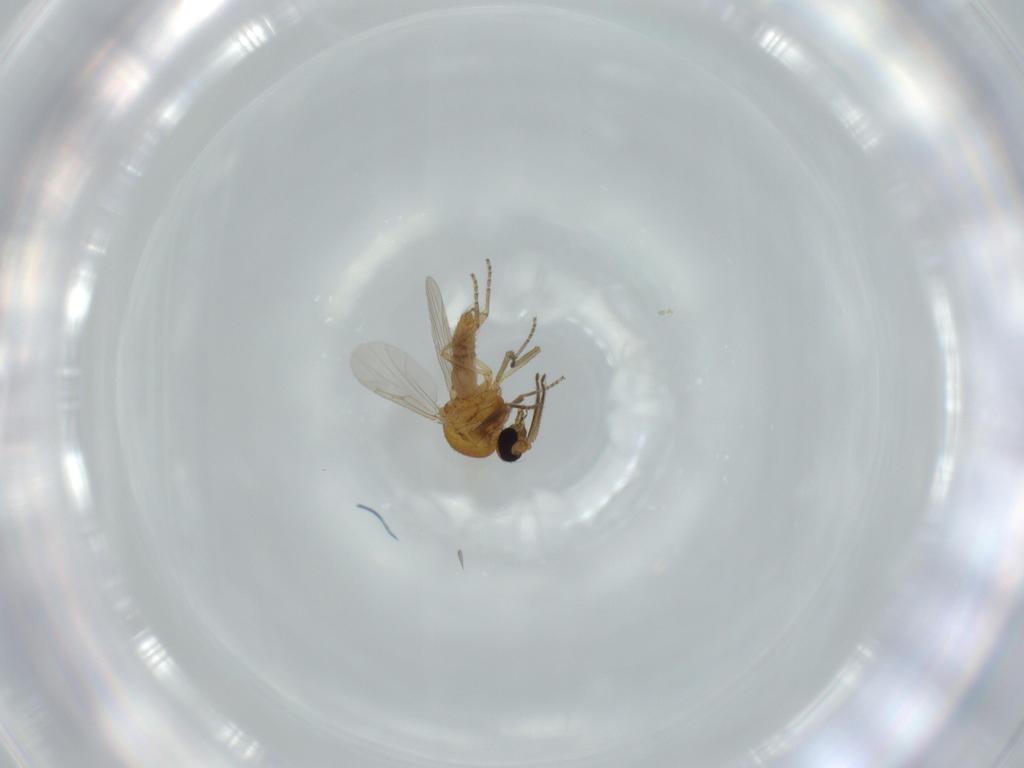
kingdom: Animalia
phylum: Arthropoda
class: Insecta
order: Diptera
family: Ceratopogonidae
